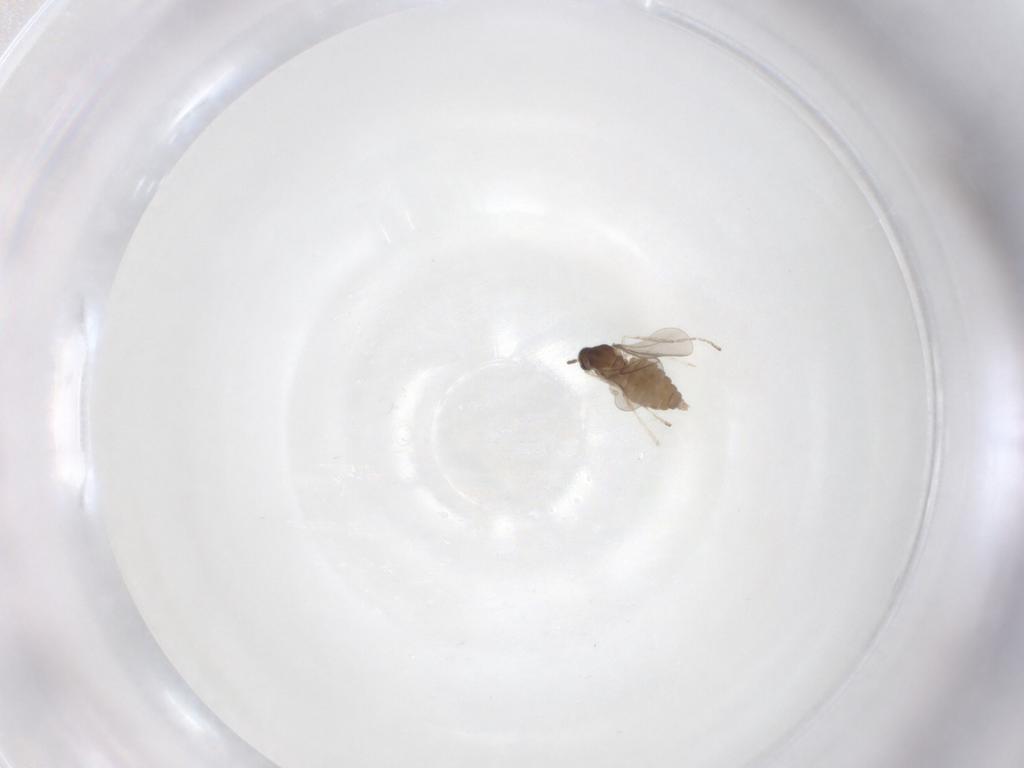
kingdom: Animalia
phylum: Arthropoda
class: Insecta
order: Diptera
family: Cecidomyiidae
